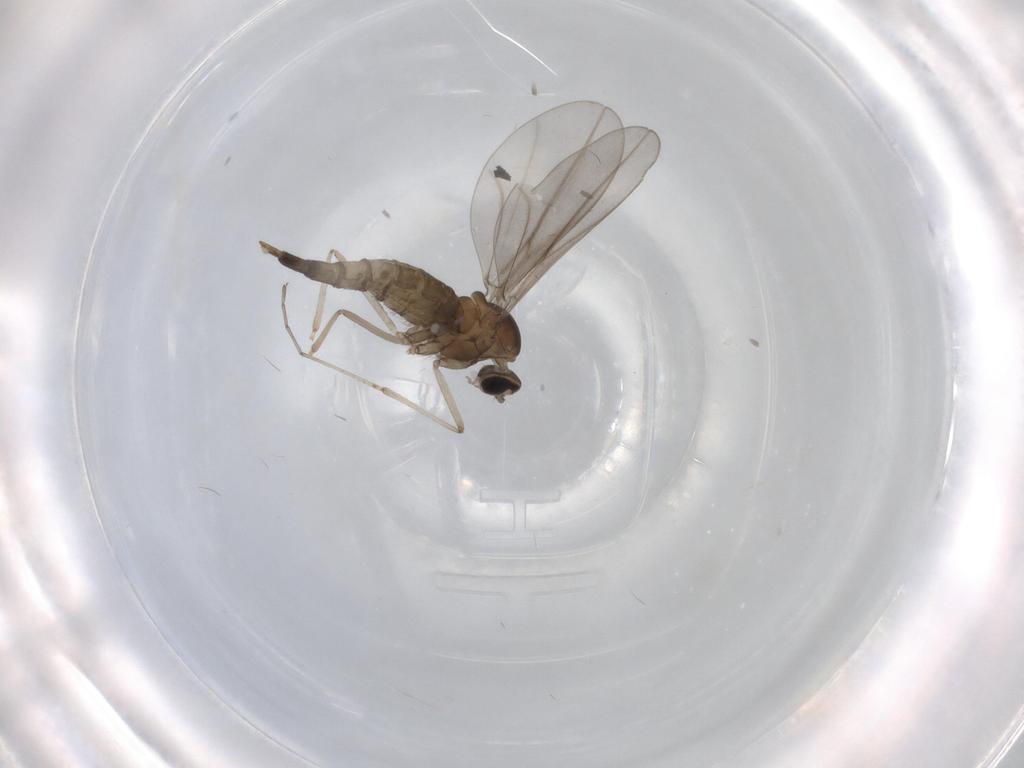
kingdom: Animalia
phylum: Arthropoda
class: Insecta
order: Diptera
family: Cecidomyiidae
